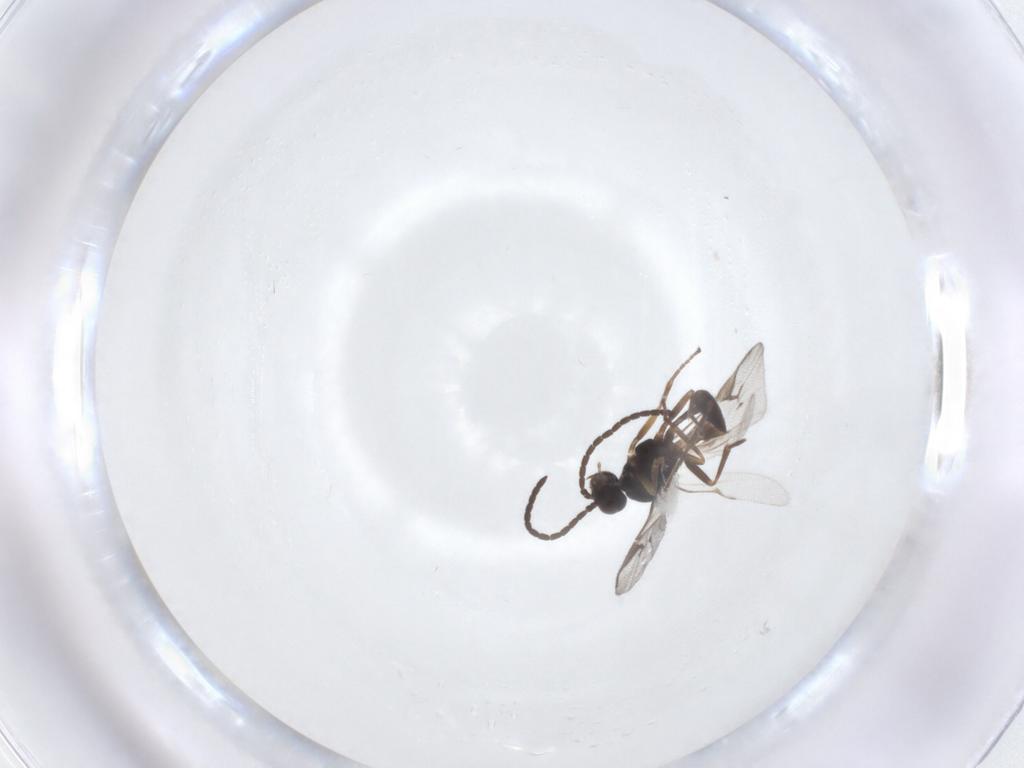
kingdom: Animalia
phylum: Arthropoda
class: Insecta
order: Hymenoptera
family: Braconidae
